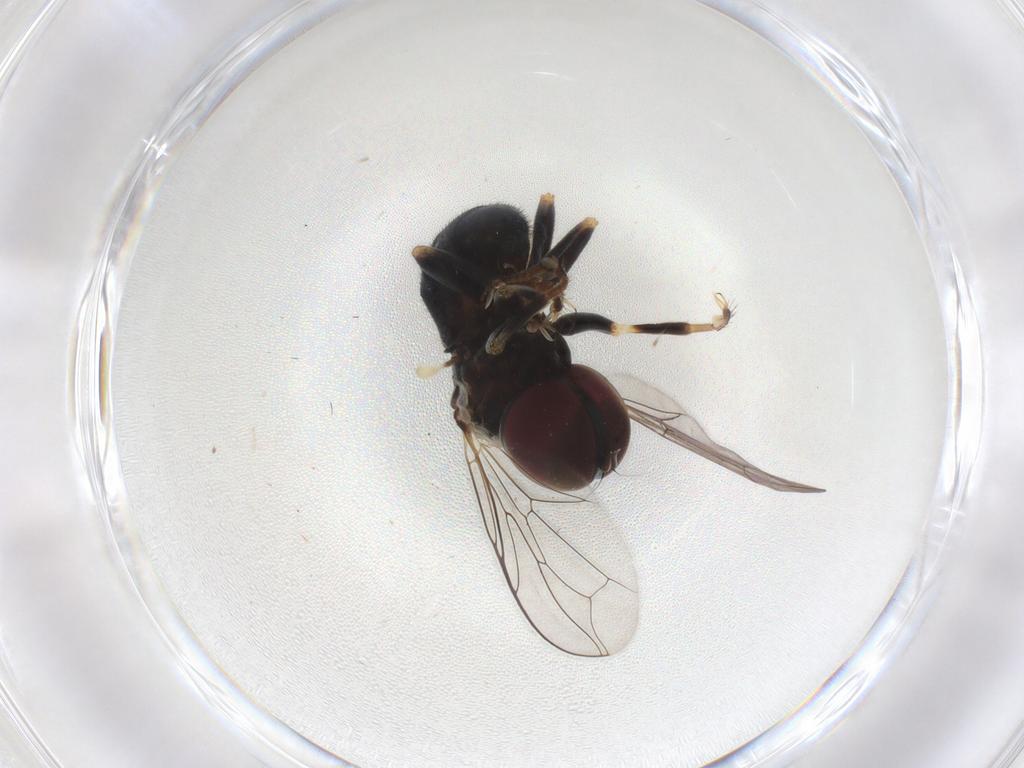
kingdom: Animalia
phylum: Arthropoda
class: Insecta
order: Diptera
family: Pipunculidae
